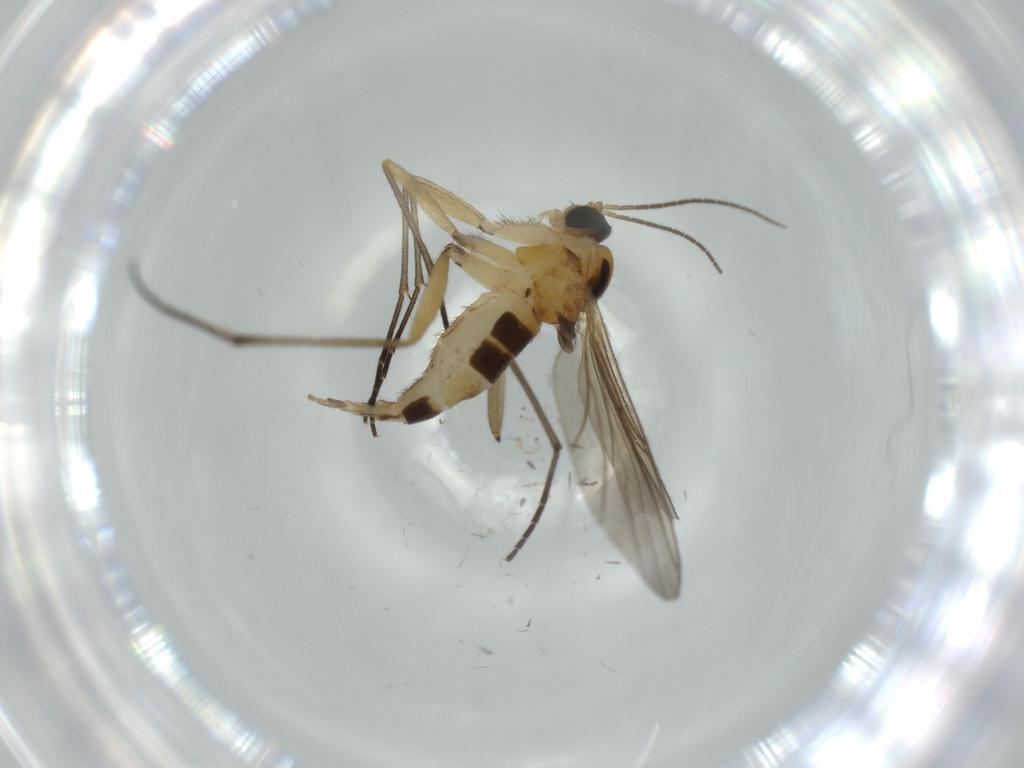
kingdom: Animalia
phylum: Arthropoda
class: Insecta
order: Diptera
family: Sciaridae
